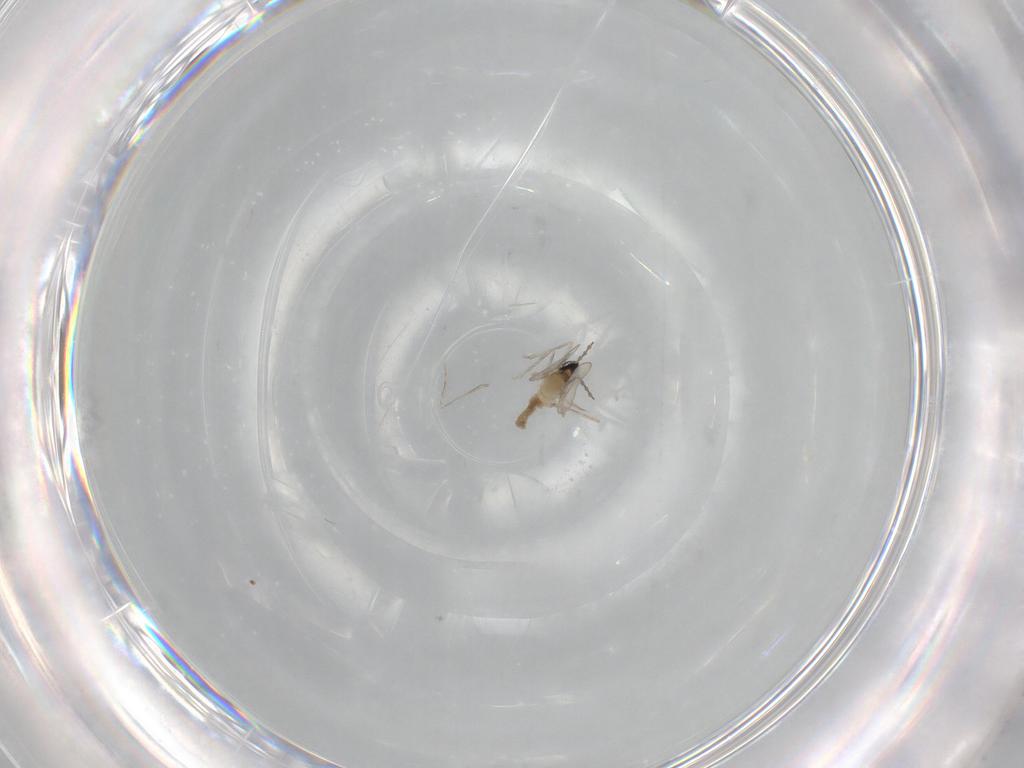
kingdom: Animalia
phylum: Arthropoda
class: Insecta
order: Diptera
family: Cecidomyiidae
